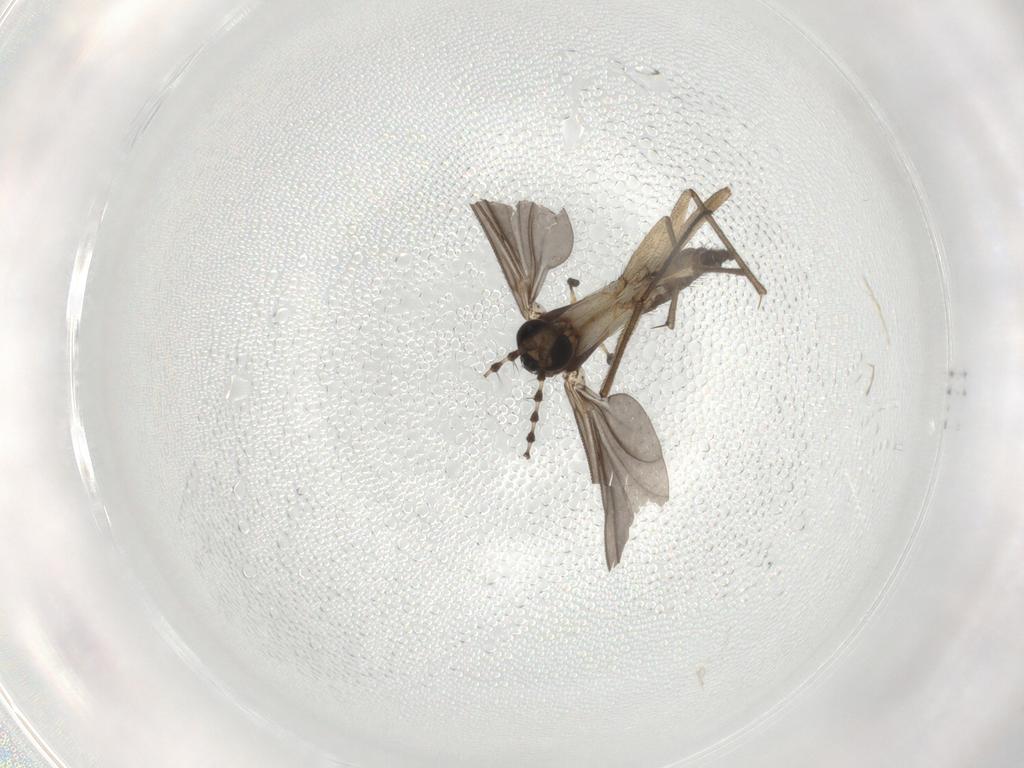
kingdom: Animalia
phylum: Arthropoda
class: Insecta
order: Diptera
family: Sciaridae
